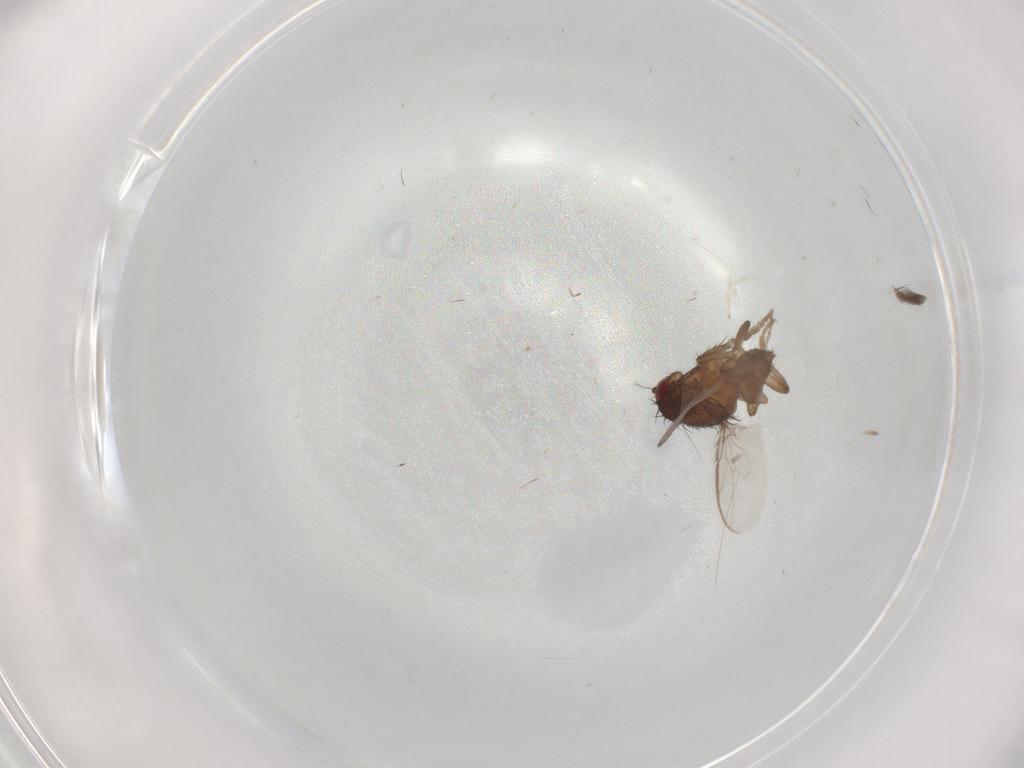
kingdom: Animalia
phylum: Arthropoda
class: Insecta
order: Diptera
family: Sphaeroceridae
